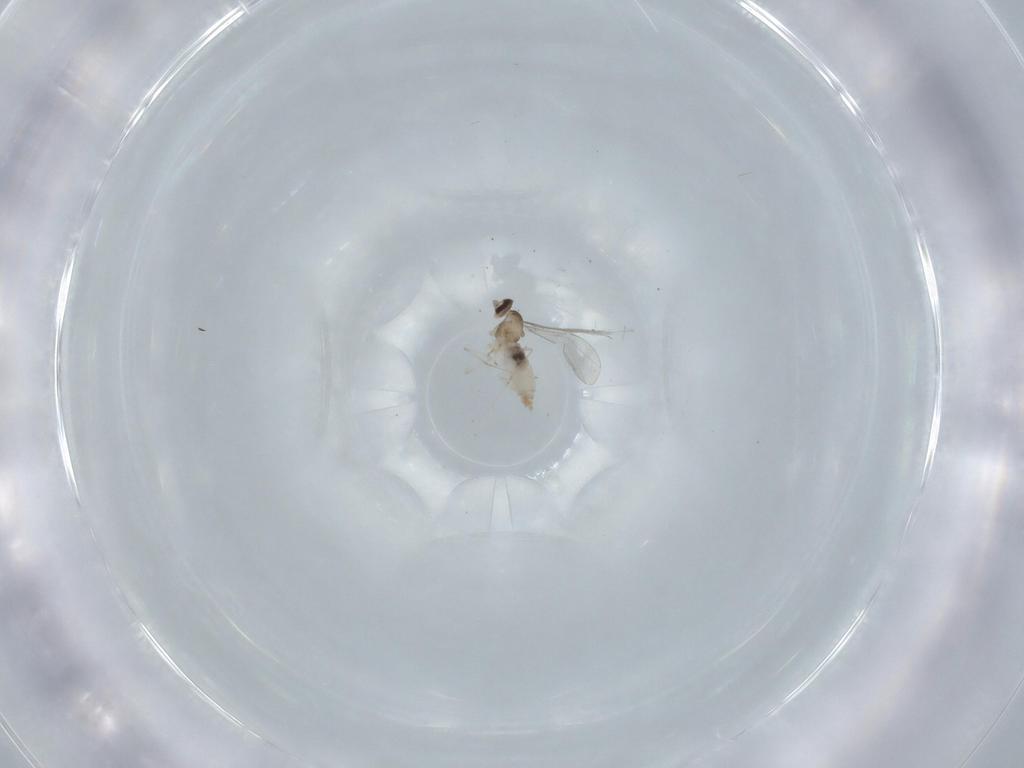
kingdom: Animalia
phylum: Arthropoda
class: Insecta
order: Diptera
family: Cecidomyiidae
